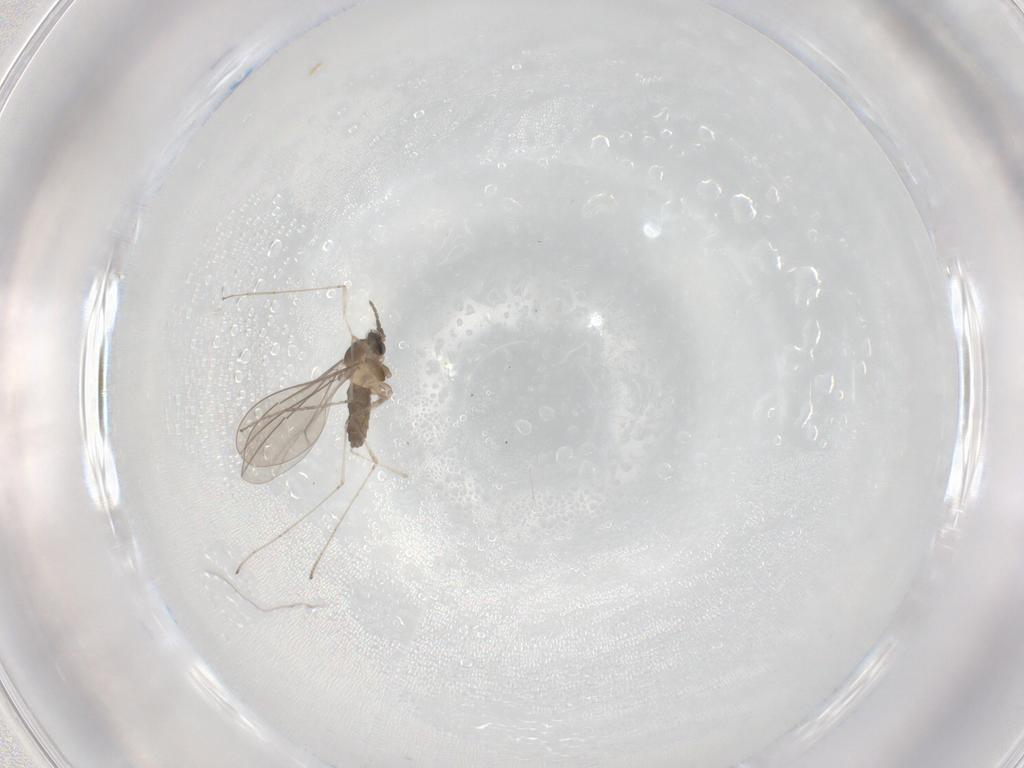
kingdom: Animalia
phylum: Arthropoda
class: Insecta
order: Diptera
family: Cecidomyiidae
